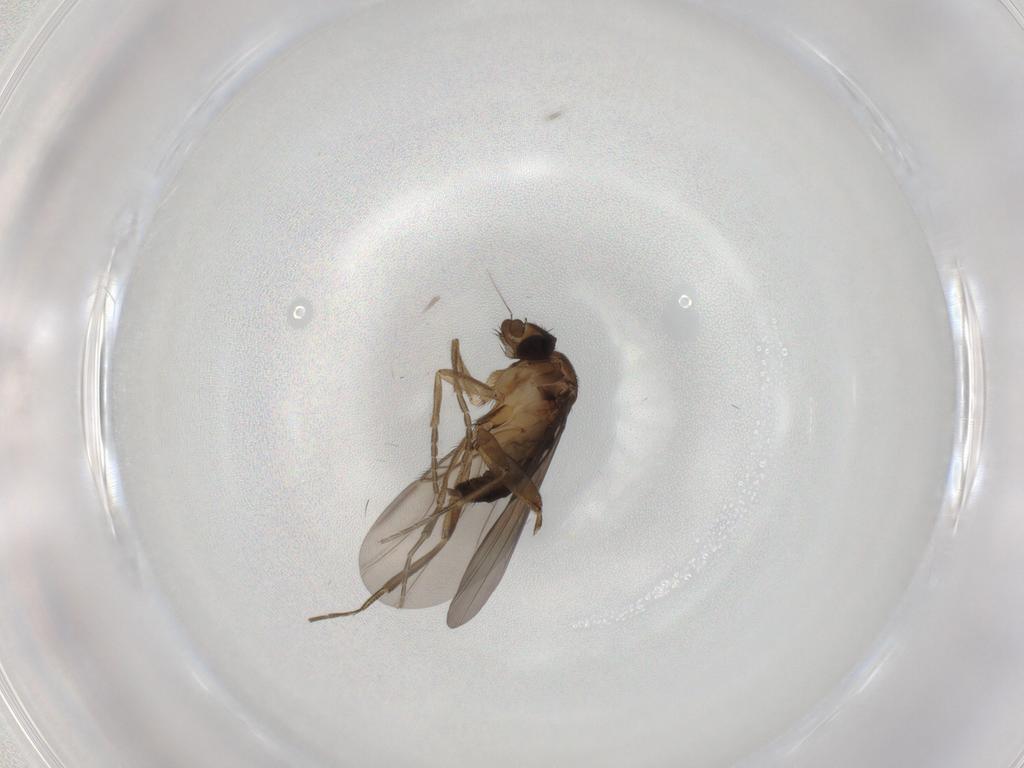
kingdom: Animalia
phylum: Arthropoda
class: Insecta
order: Diptera
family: Phoridae
